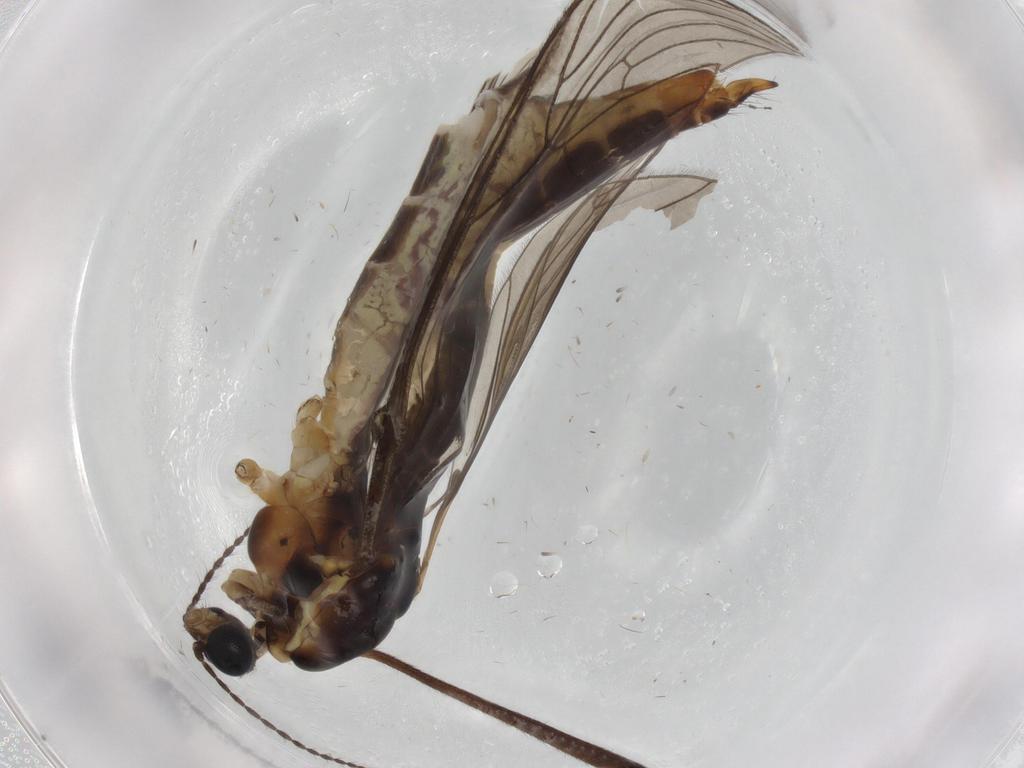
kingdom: Animalia
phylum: Arthropoda
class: Insecta
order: Diptera
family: Limoniidae
